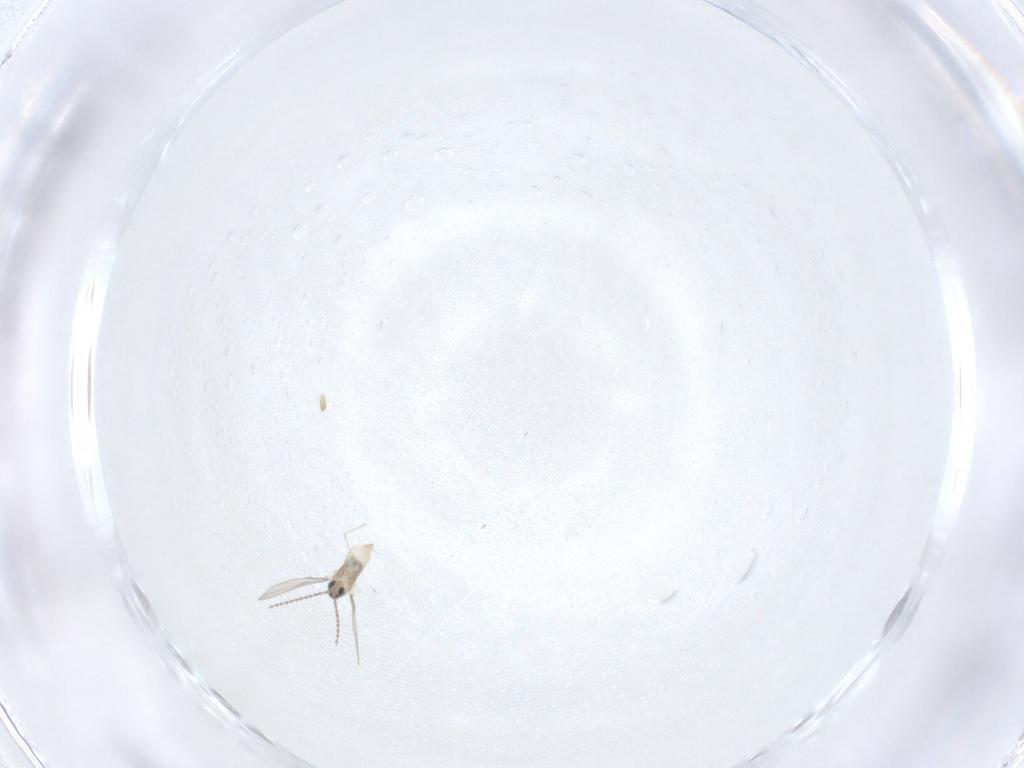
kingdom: Animalia
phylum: Arthropoda
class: Insecta
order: Diptera
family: Cecidomyiidae
